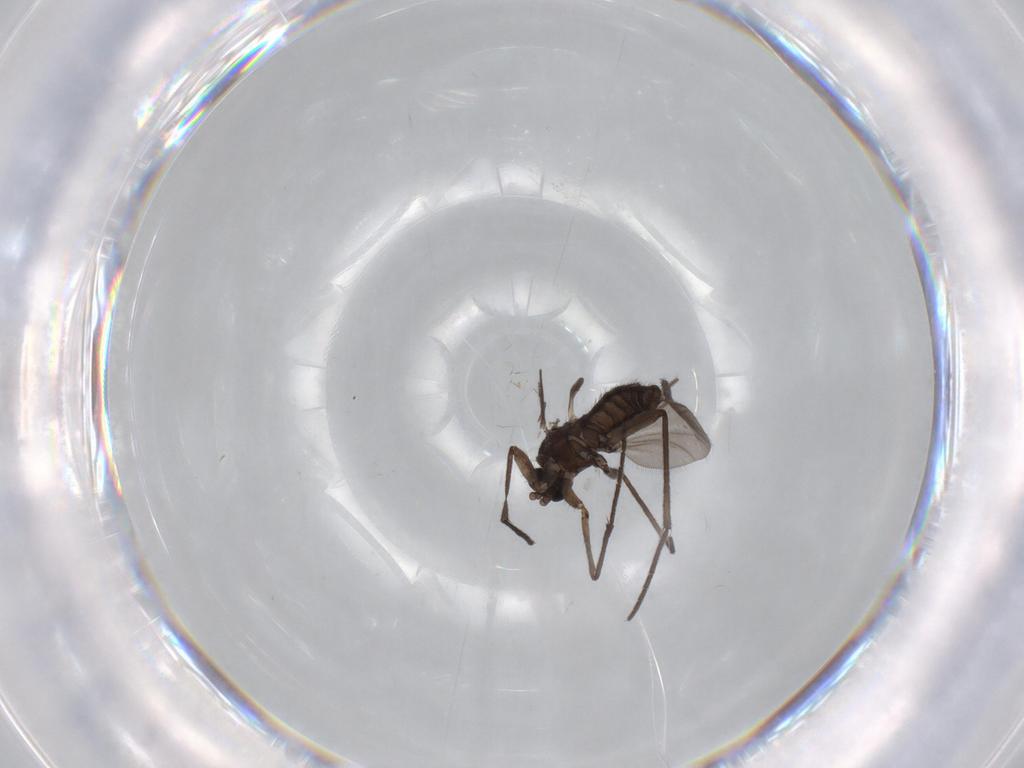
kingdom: Animalia
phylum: Arthropoda
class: Insecta
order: Diptera
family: Sciaridae
